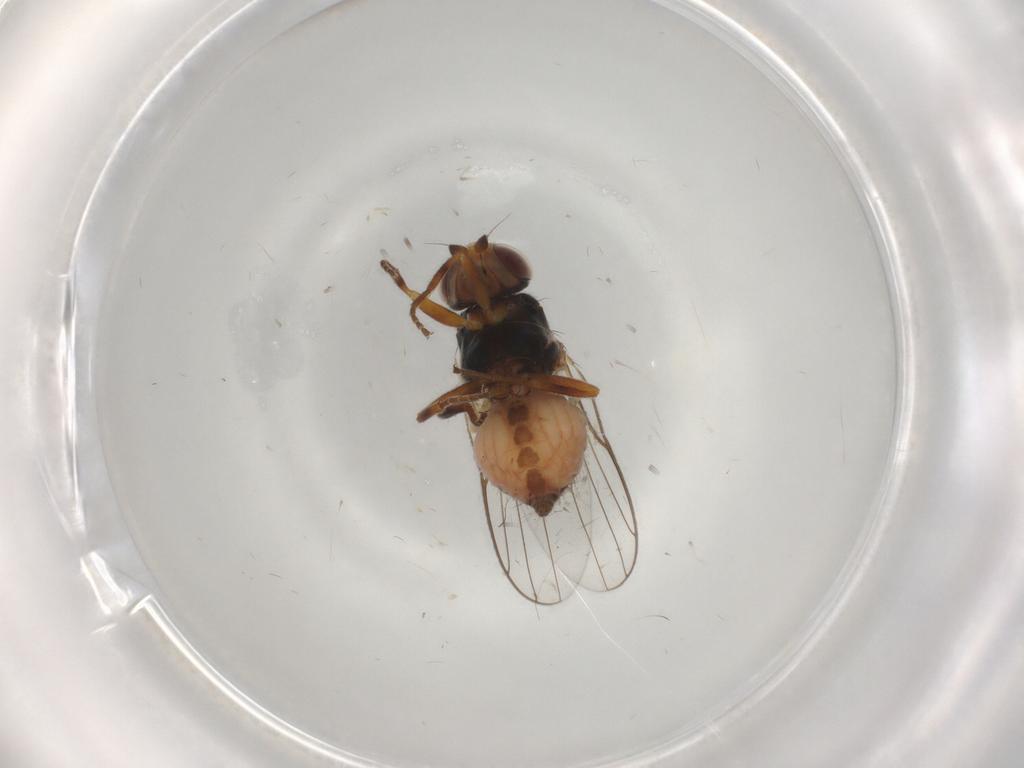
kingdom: Animalia
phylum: Arthropoda
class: Insecta
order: Diptera
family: Chloropidae
